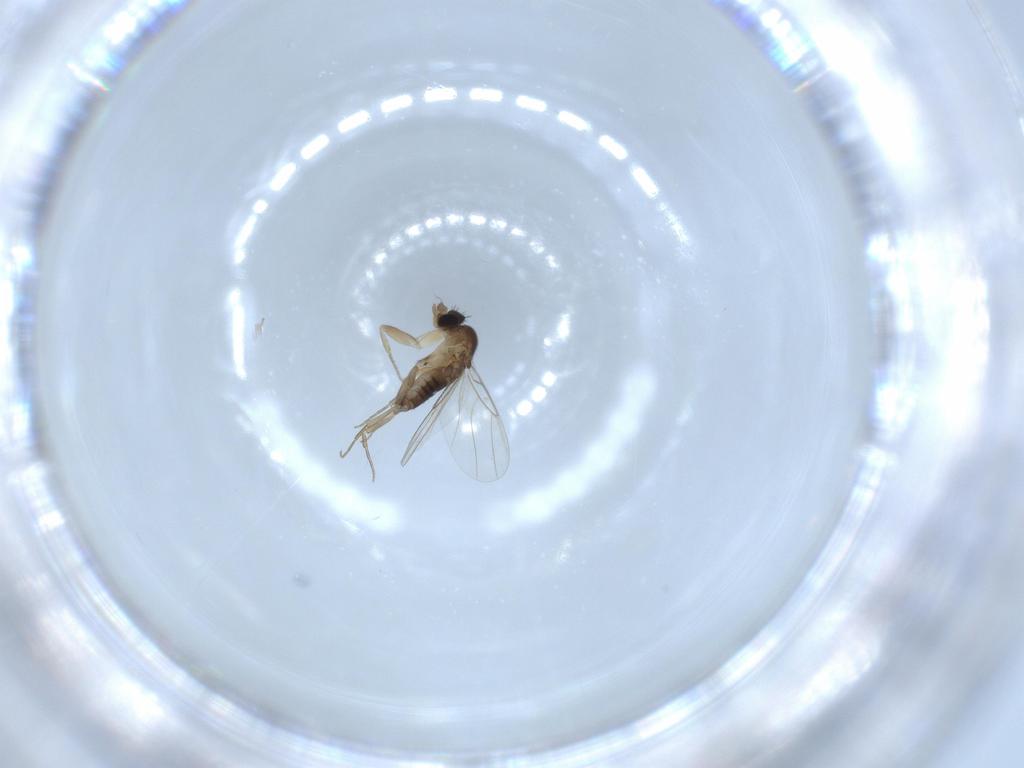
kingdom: Animalia
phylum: Arthropoda
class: Insecta
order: Diptera
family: Phoridae
